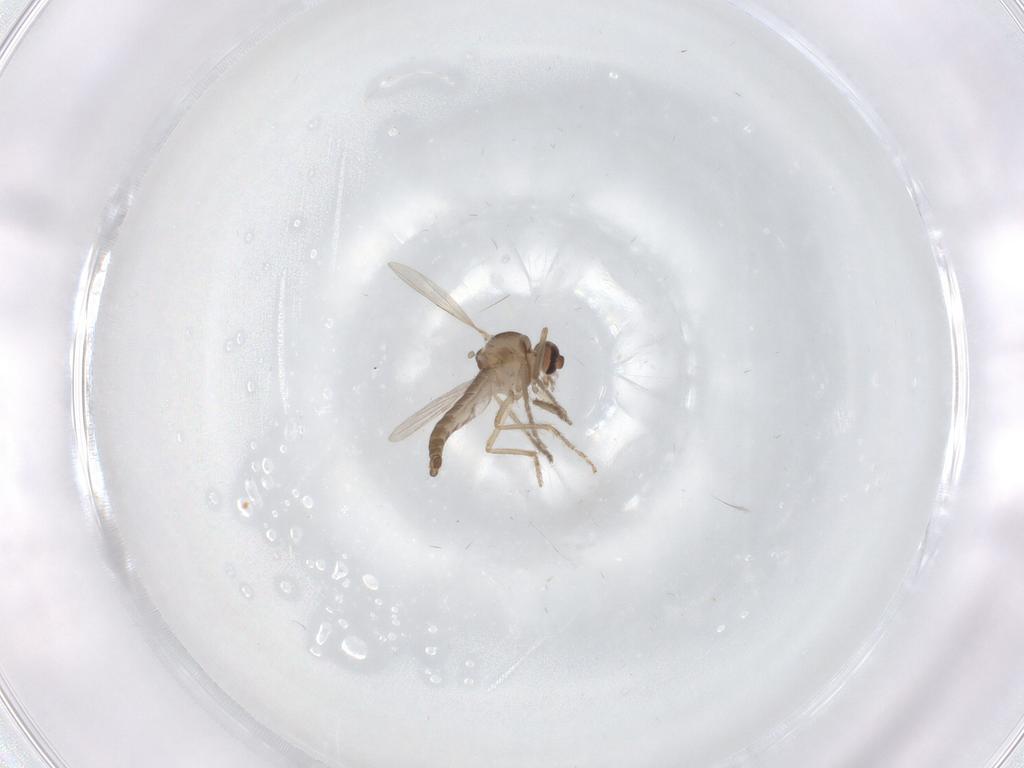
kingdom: Animalia
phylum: Arthropoda
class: Insecta
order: Diptera
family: Ceratopogonidae
